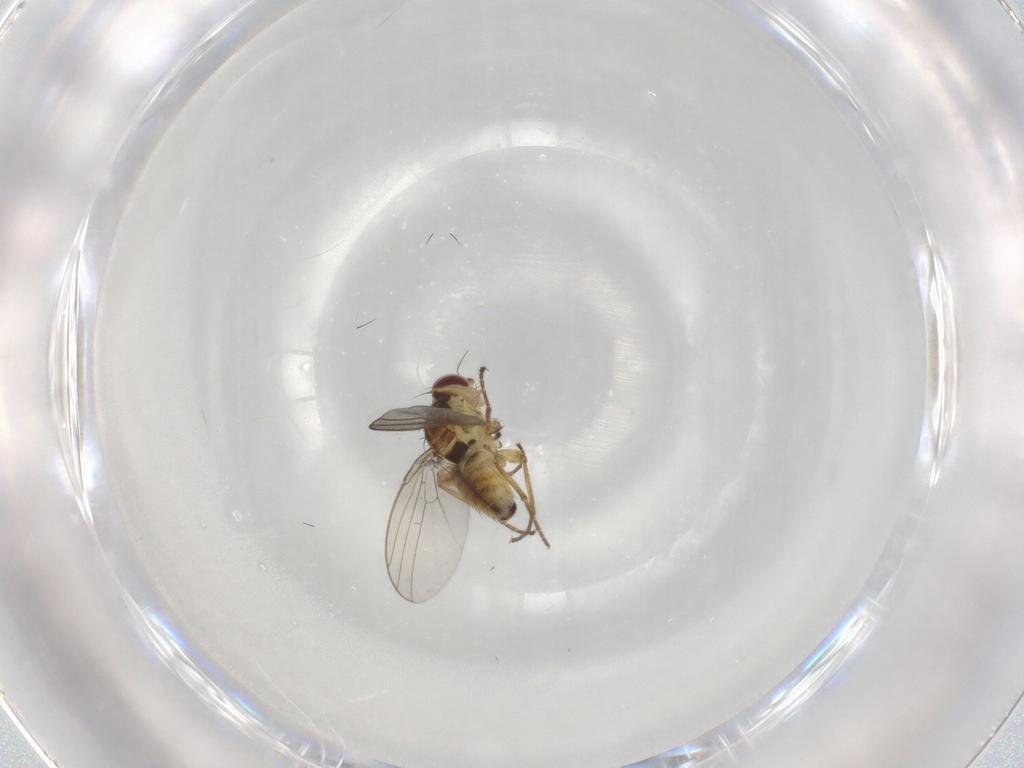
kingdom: Animalia
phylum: Arthropoda
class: Insecta
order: Diptera
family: Agromyzidae
